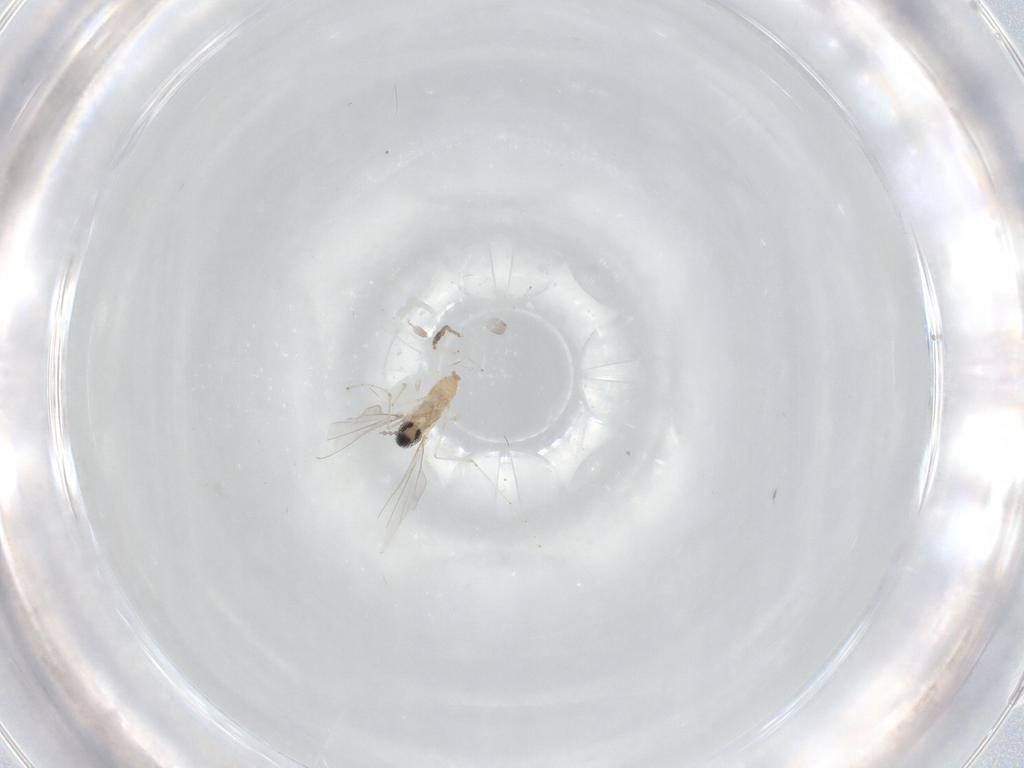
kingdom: Animalia
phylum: Arthropoda
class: Insecta
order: Diptera
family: Cecidomyiidae
